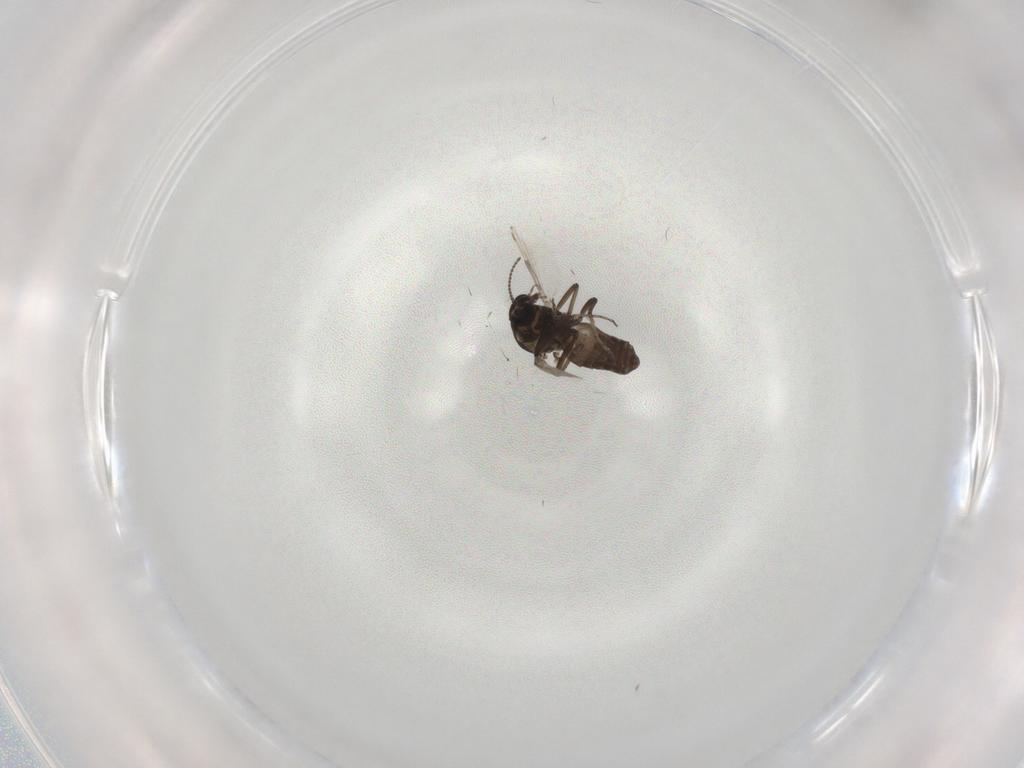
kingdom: Animalia
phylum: Arthropoda
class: Insecta
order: Diptera
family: Ceratopogonidae
